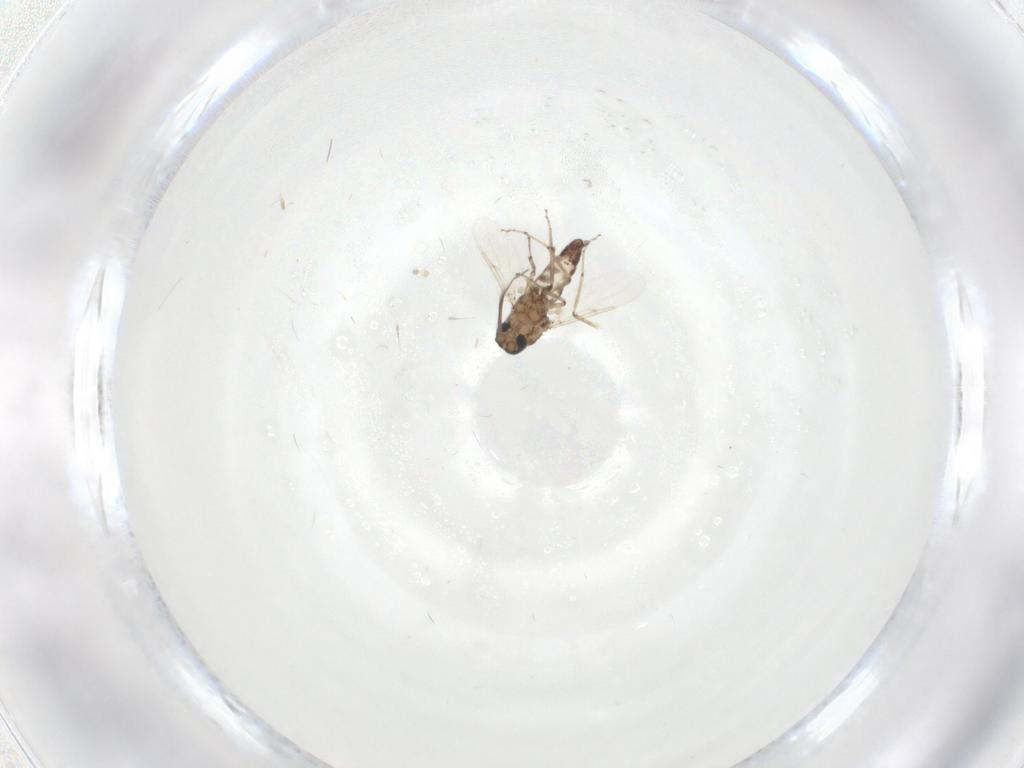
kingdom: Animalia
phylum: Arthropoda
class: Insecta
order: Diptera
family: Ceratopogonidae
